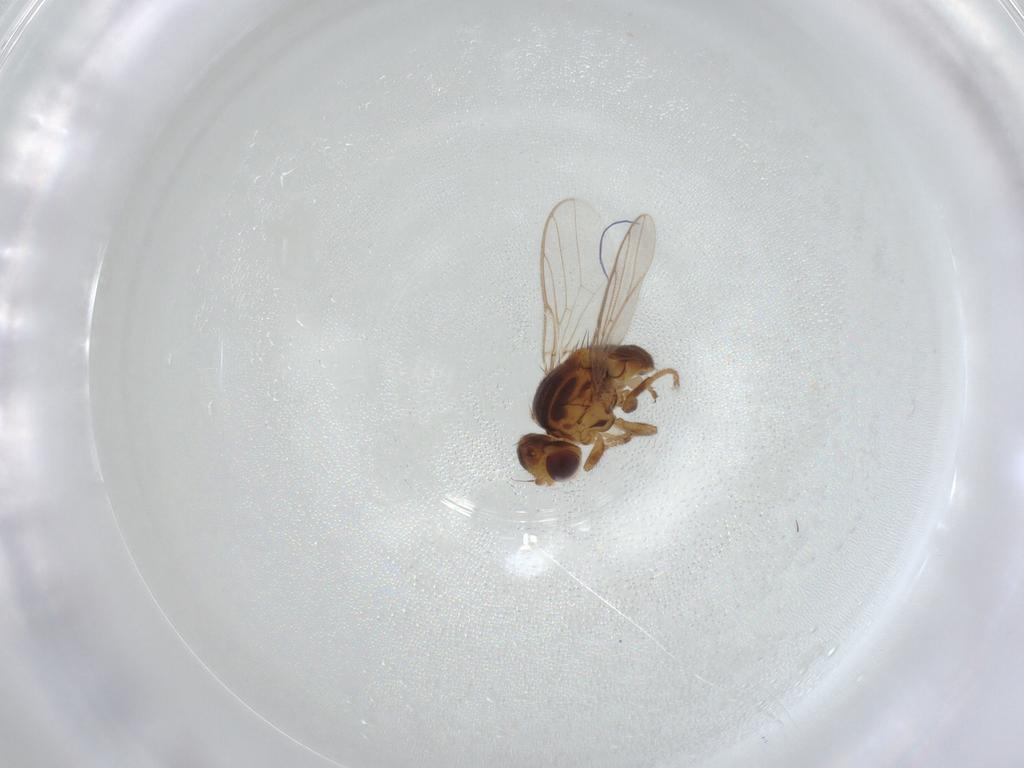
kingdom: Animalia
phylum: Arthropoda
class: Insecta
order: Diptera
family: Chloropidae
